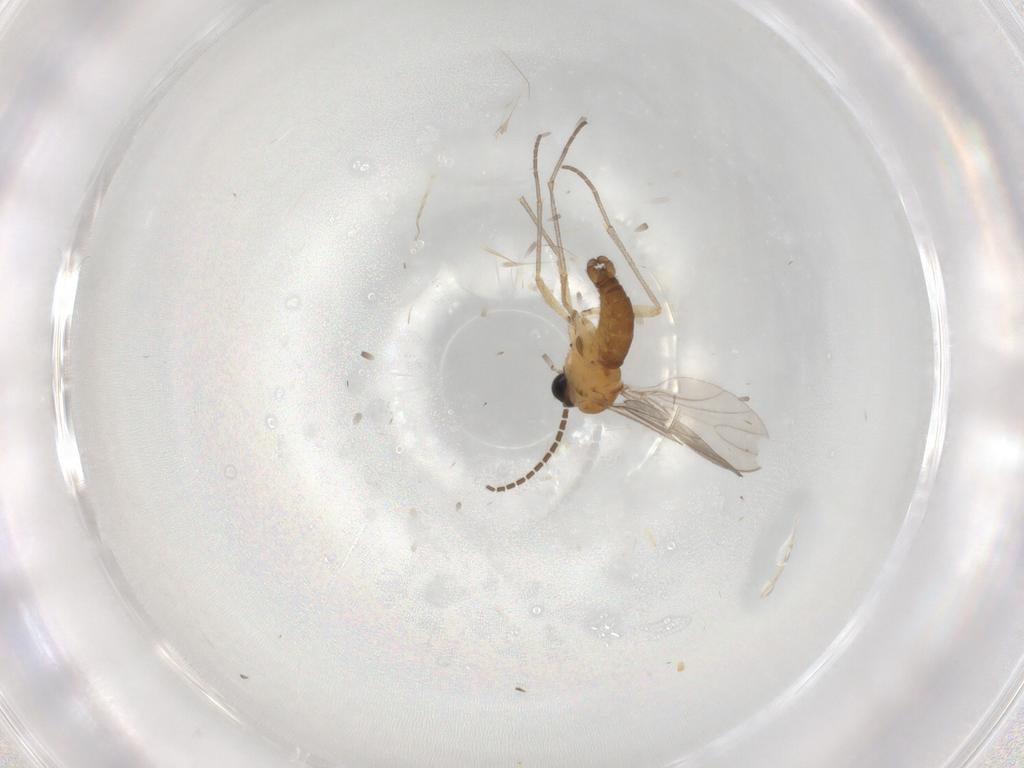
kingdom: Animalia
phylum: Arthropoda
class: Insecta
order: Diptera
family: Sciaridae
